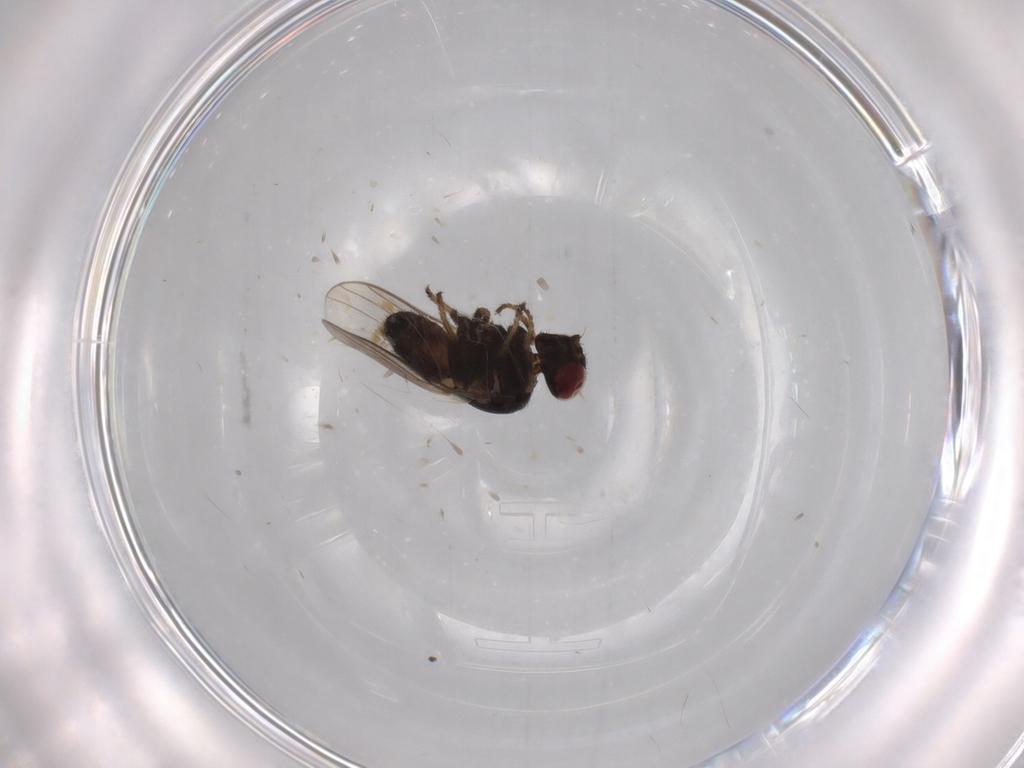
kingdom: Animalia
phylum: Arthropoda
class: Insecta
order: Diptera
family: Chloropidae
